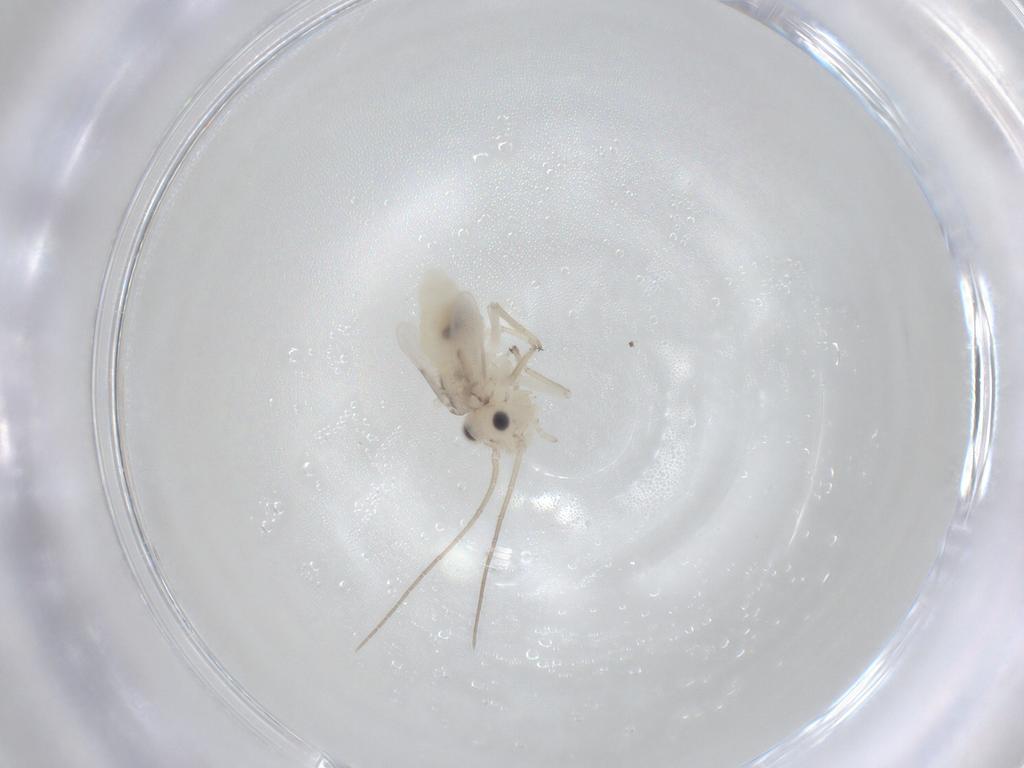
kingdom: Animalia
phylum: Arthropoda
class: Insecta
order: Psocodea
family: Caeciliusidae
